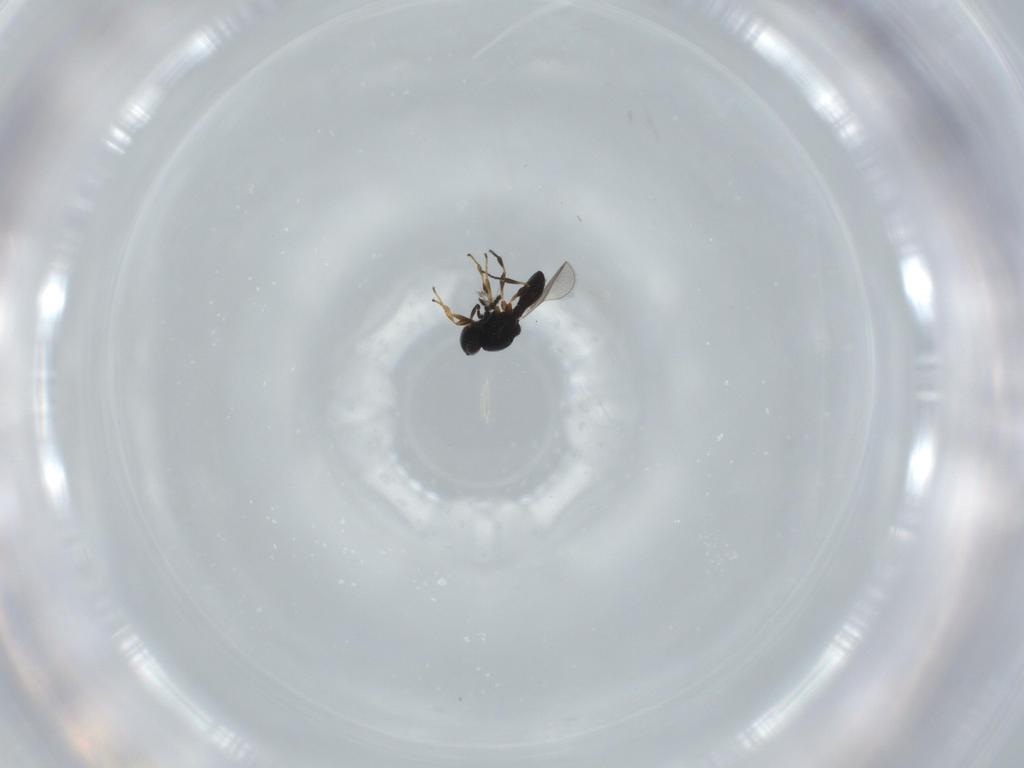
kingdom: Animalia
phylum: Arthropoda
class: Insecta
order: Hymenoptera
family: Platygastridae
